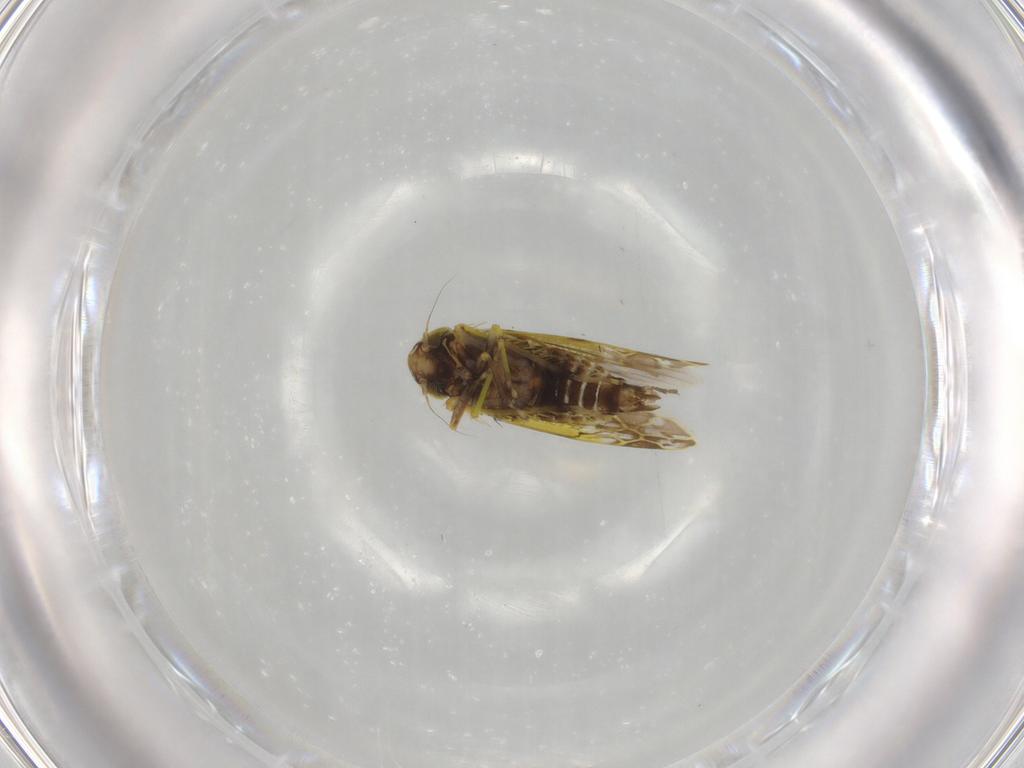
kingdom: Animalia
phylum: Arthropoda
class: Insecta
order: Hemiptera
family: Cicadellidae
